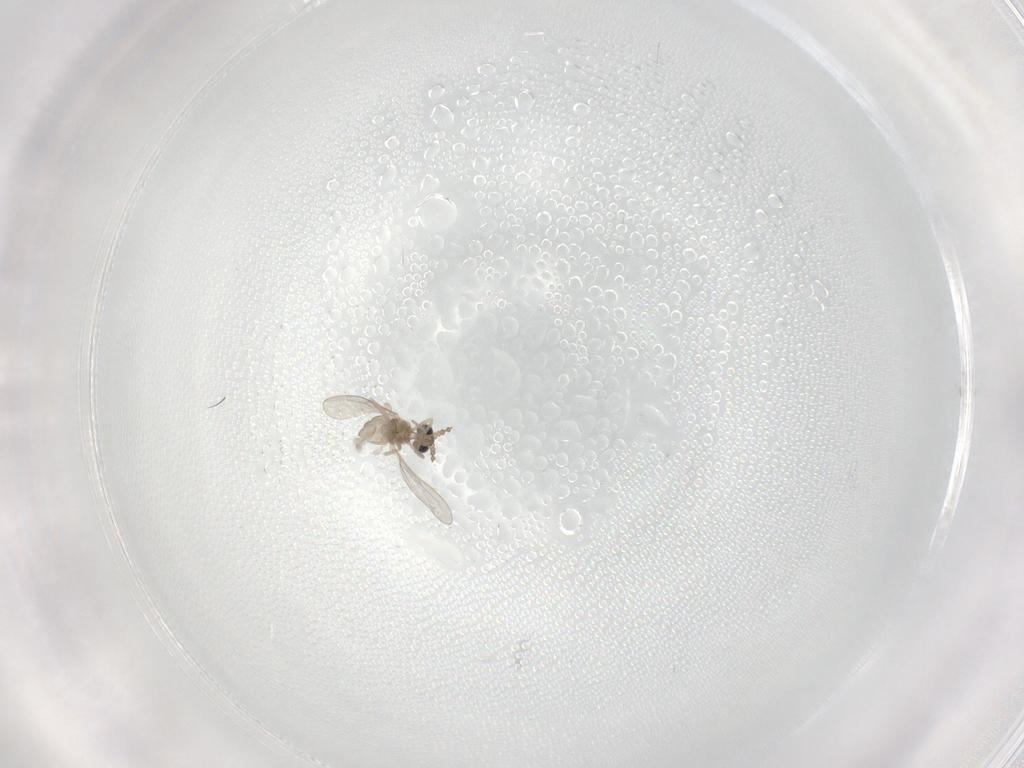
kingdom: Animalia
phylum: Arthropoda
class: Insecta
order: Diptera
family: Cecidomyiidae
